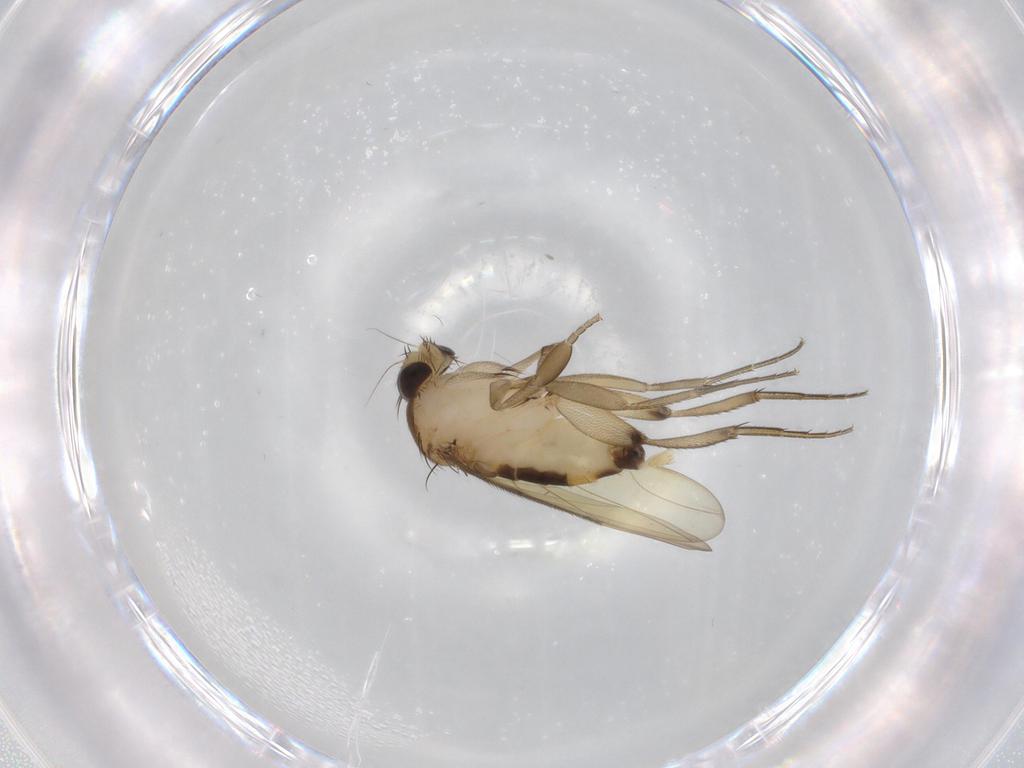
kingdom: Animalia
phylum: Arthropoda
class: Insecta
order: Diptera
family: Phoridae
